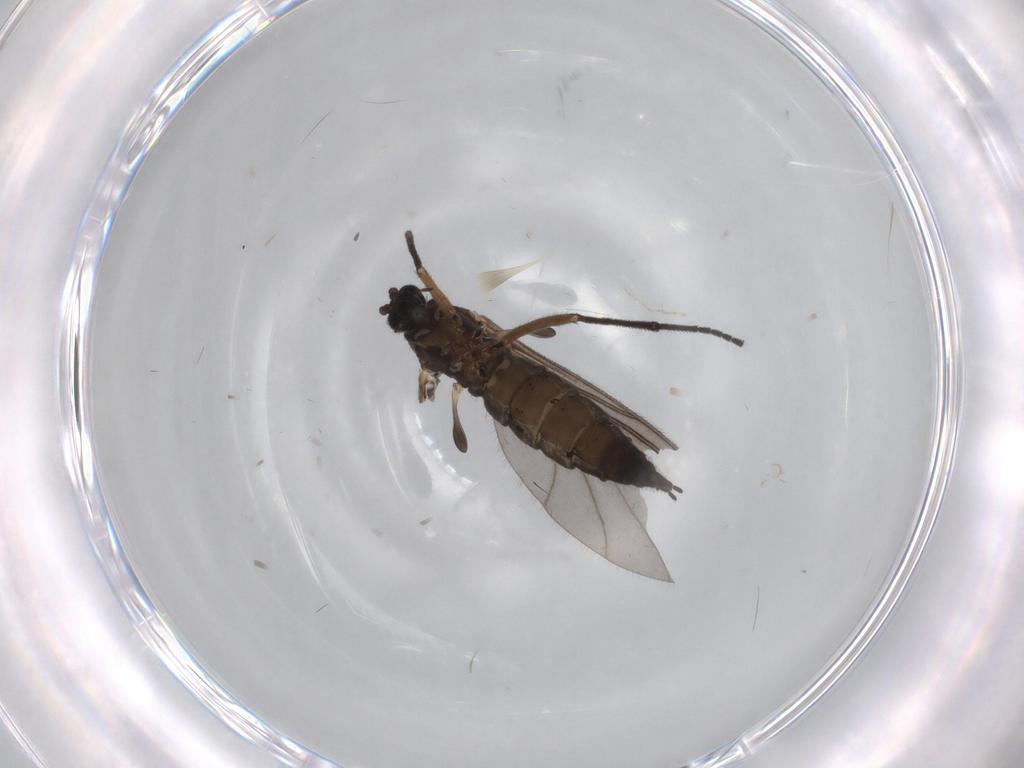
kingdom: Animalia
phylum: Arthropoda
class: Insecta
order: Diptera
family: Sciaridae
